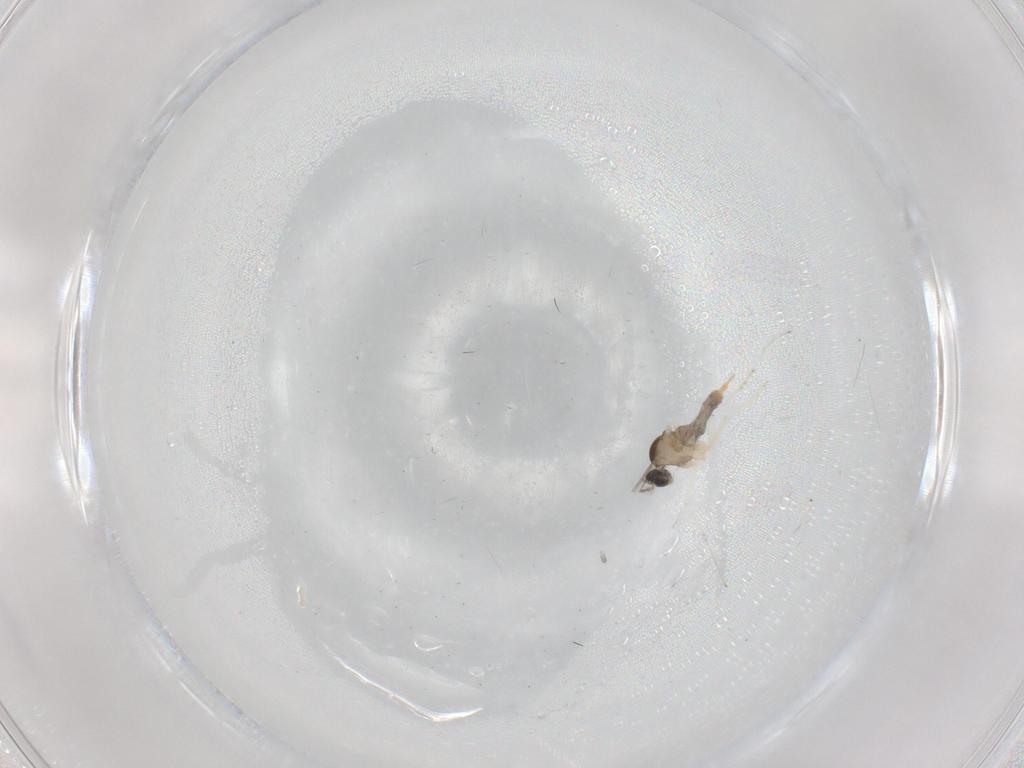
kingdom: Animalia
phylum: Arthropoda
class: Insecta
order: Diptera
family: Cecidomyiidae
